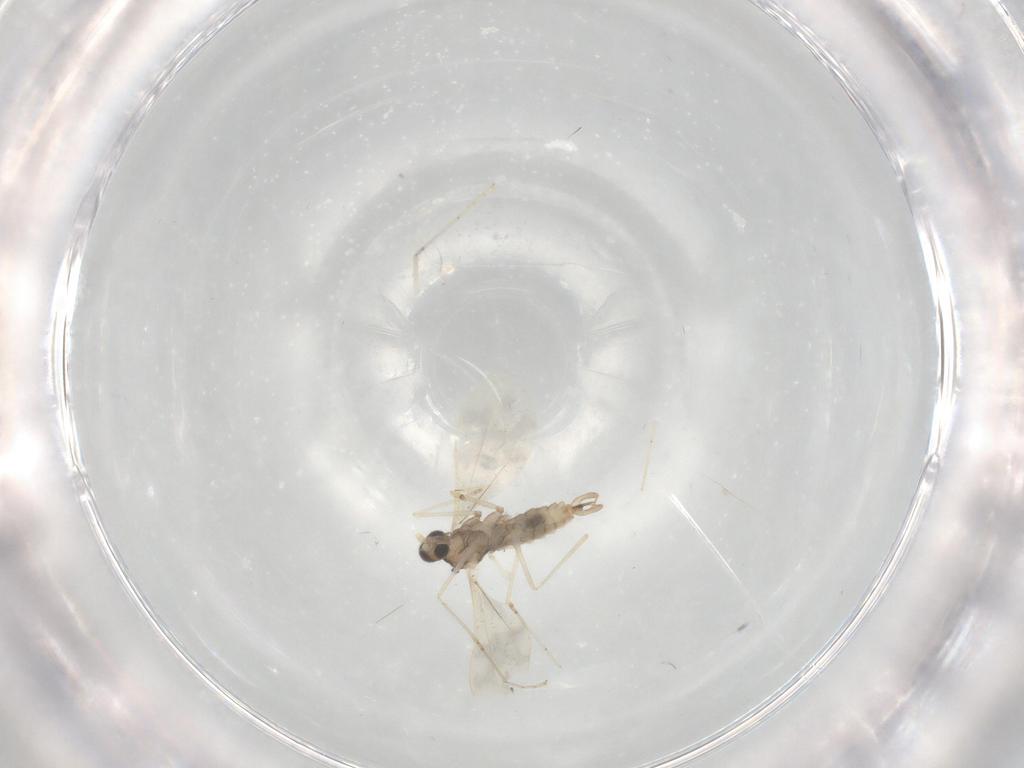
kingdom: Animalia
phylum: Arthropoda
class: Insecta
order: Diptera
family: Cecidomyiidae
